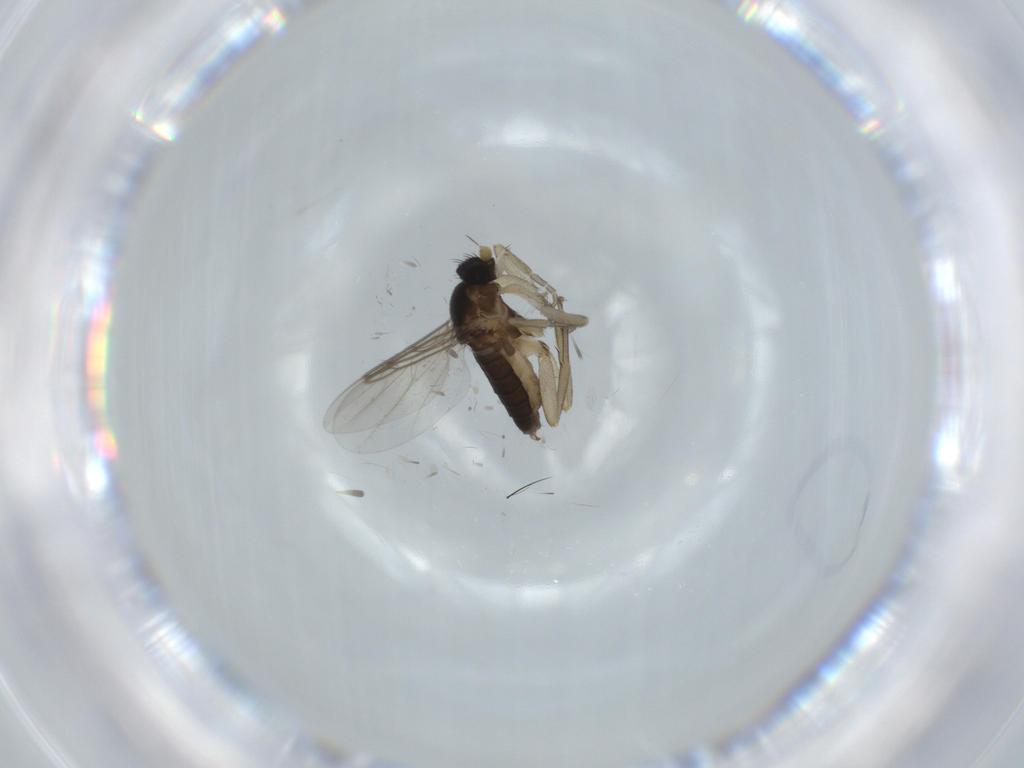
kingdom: Animalia
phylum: Arthropoda
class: Insecta
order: Diptera
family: Phoridae
